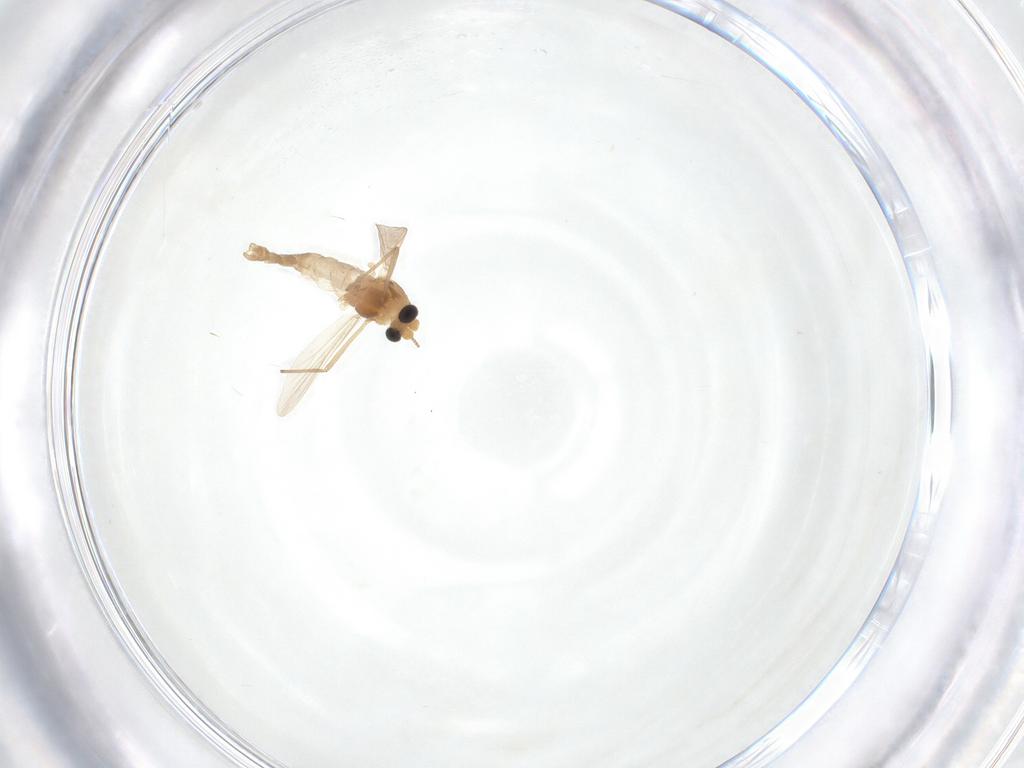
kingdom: Animalia
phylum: Arthropoda
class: Insecta
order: Diptera
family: Chironomidae
